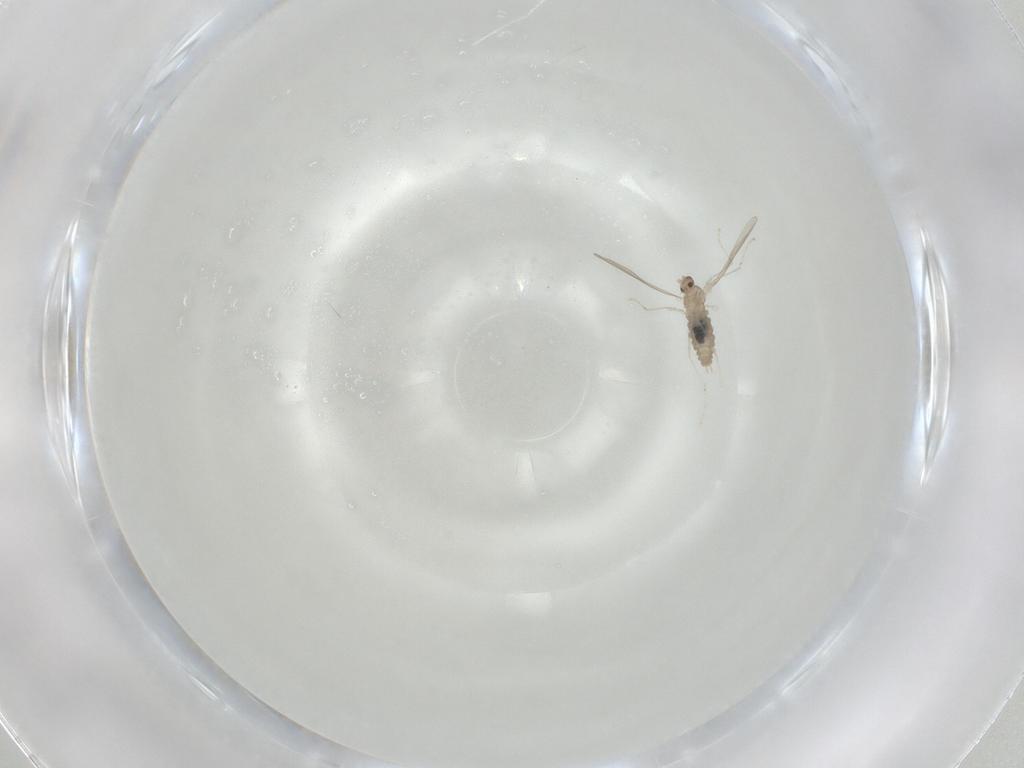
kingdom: Animalia
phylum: Arthropoda
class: Insecta
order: Diptera
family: Cecidomyiidae
